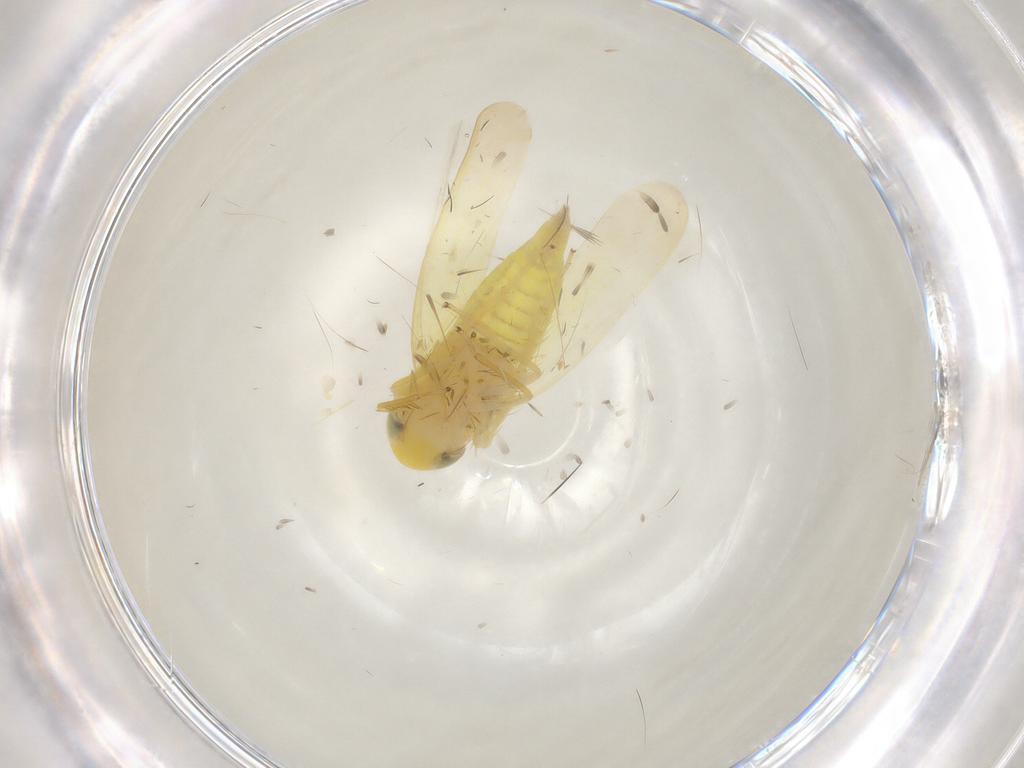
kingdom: Animalia
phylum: Arthropoda
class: Insecta
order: Hemiptera
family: Cicadellidae
